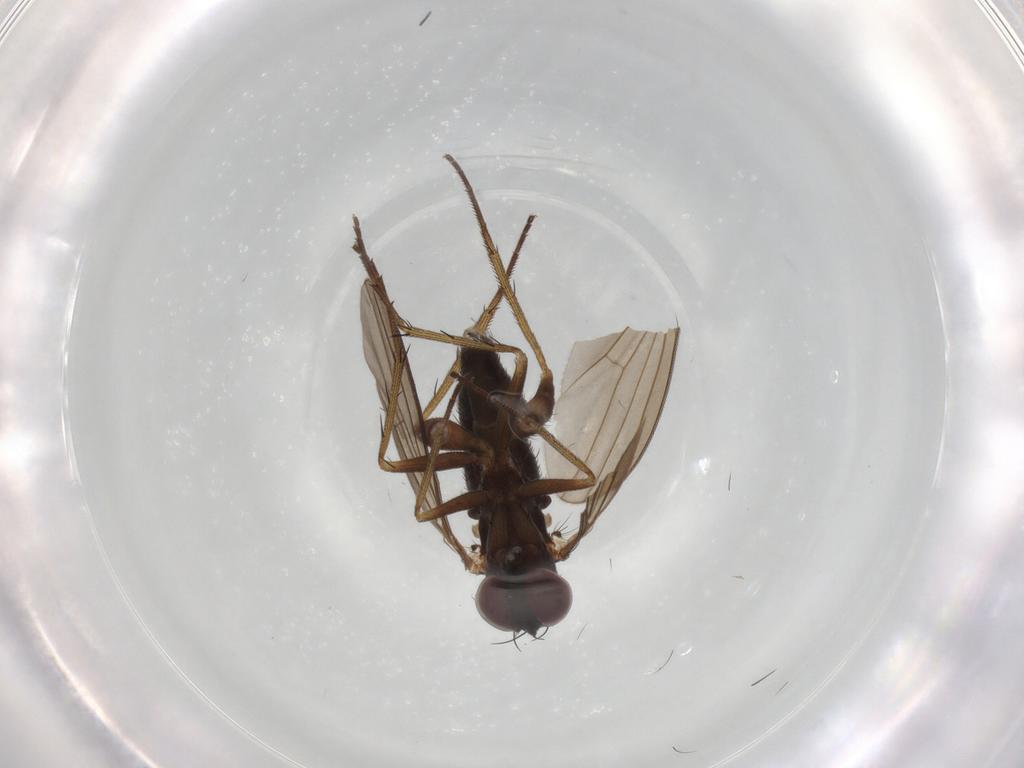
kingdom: Animalia
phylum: Arthropoda
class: Insecta
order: Diptera
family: Dolichopodidae
